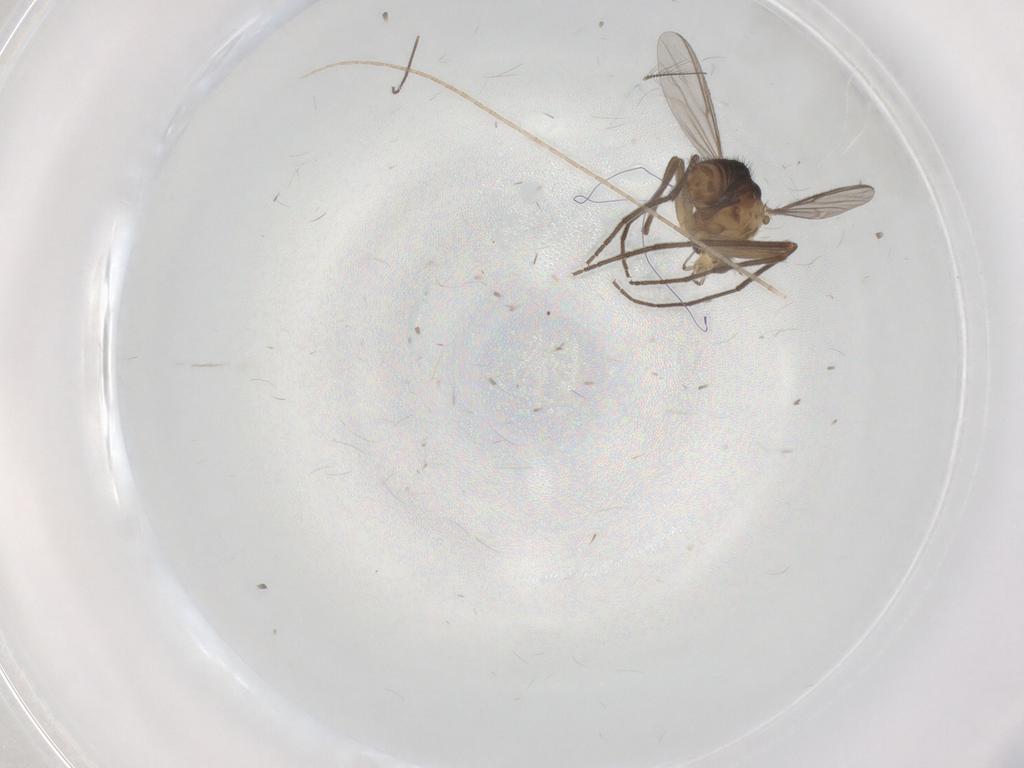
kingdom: Animalia
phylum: Arthropoda
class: Insecta
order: Diptera
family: Chironomidae
